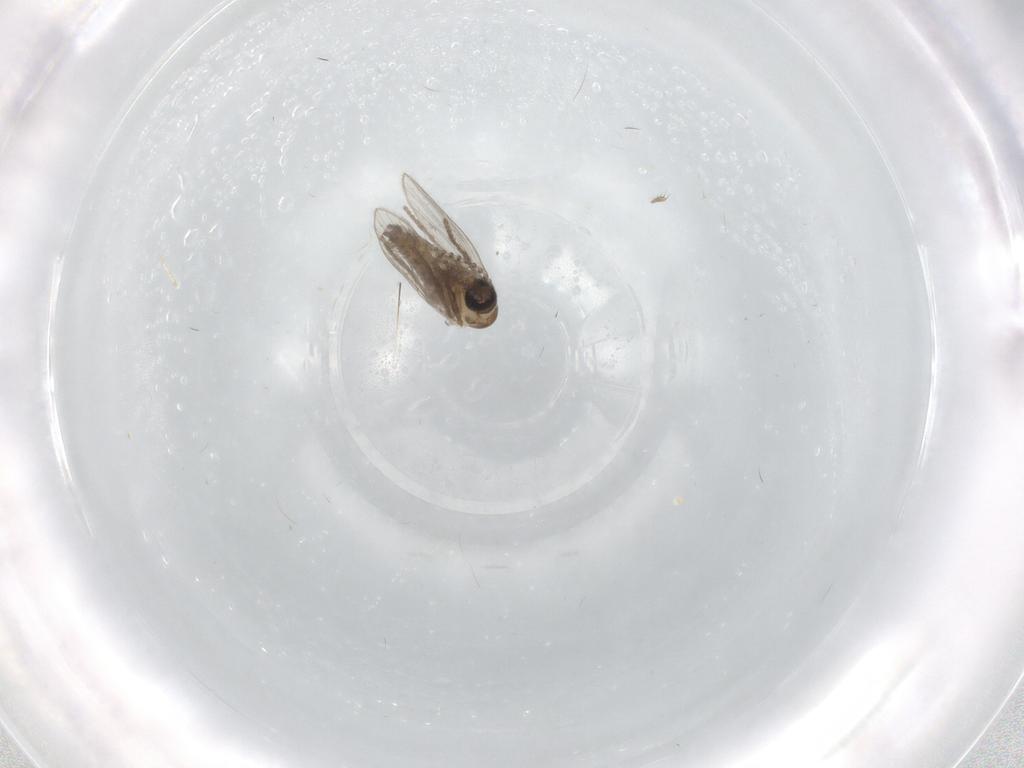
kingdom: Animalia
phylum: Arthropoda
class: Insecta
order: Diptera
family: Psychodidae
